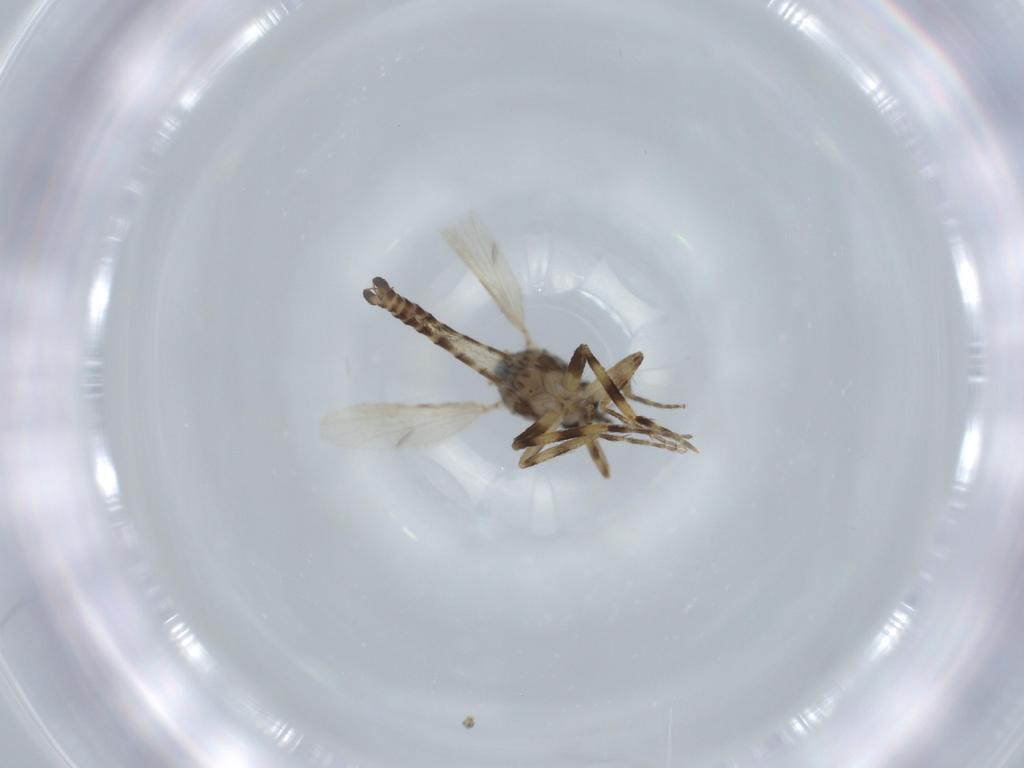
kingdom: Animalia
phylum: Arthropoda
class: Insecta
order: Diptera
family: Ceratopogonidae
